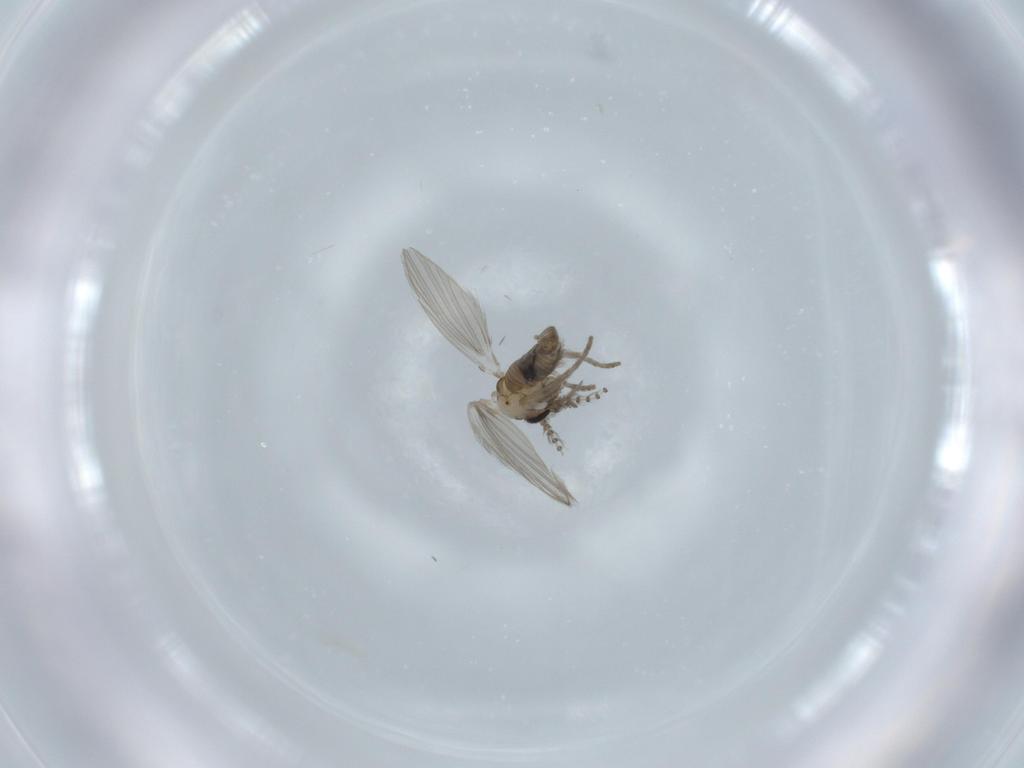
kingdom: Animalia
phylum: Arthropoda
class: Insecta
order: Diptera
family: Psychodidae
